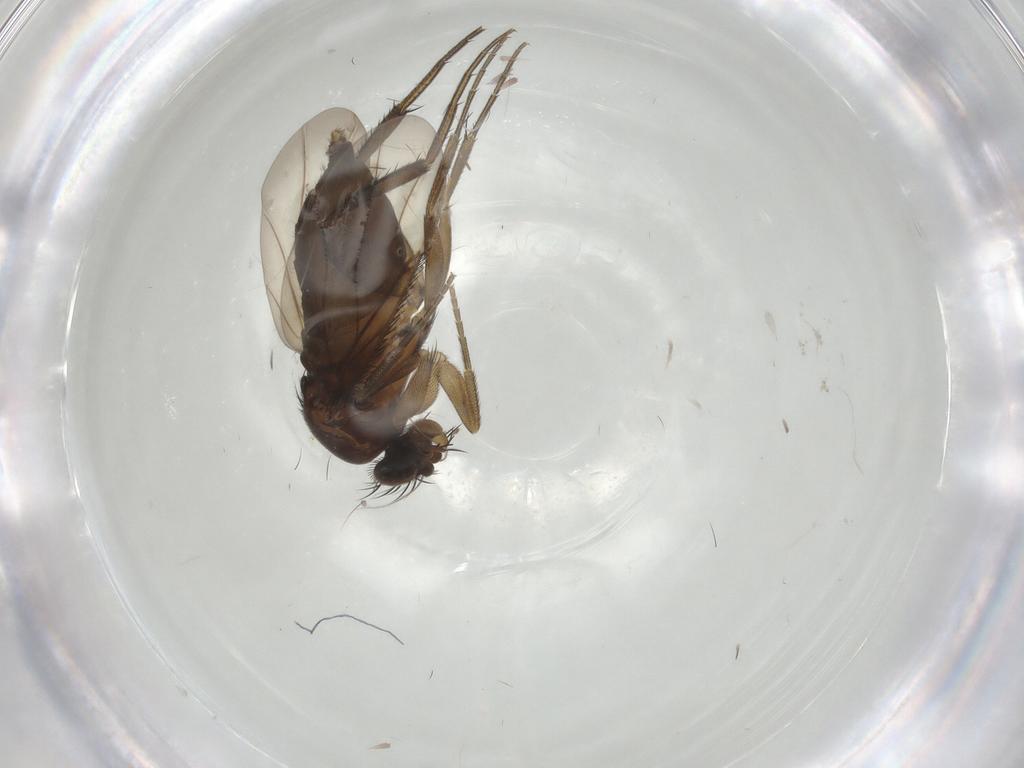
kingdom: Animalia
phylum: Arthropoda
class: Insecta
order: Diptera
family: Phoridae
